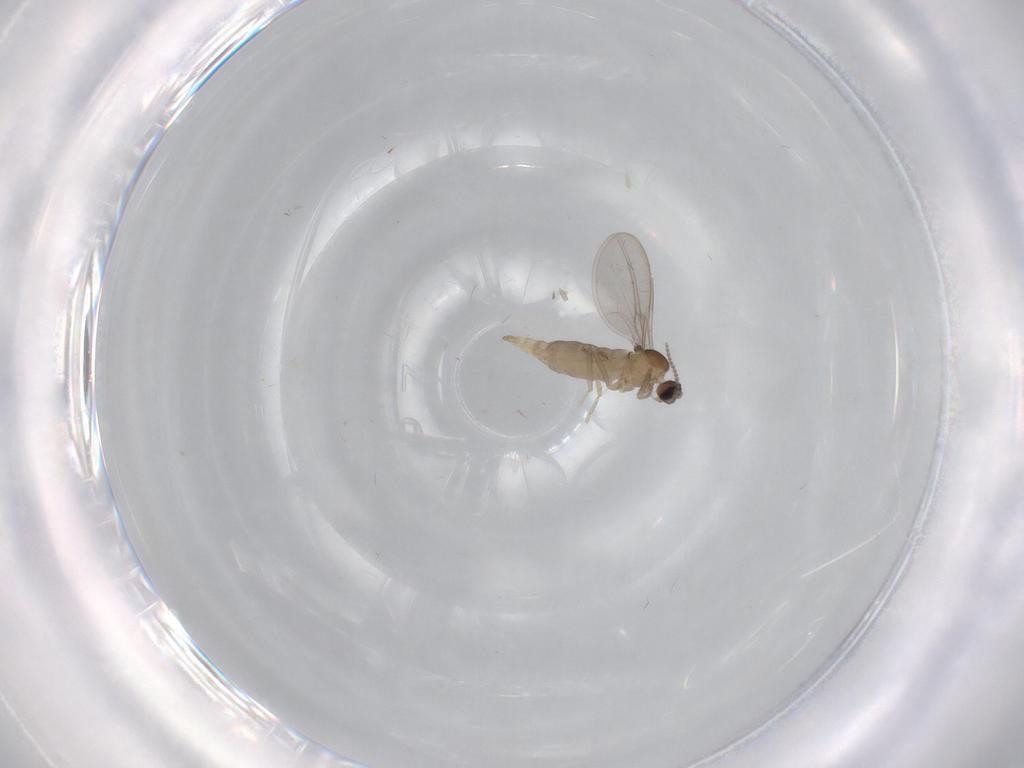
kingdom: Animalia
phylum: Arthropoda
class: Insecta
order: Diptera
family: Cecidomyiidae
